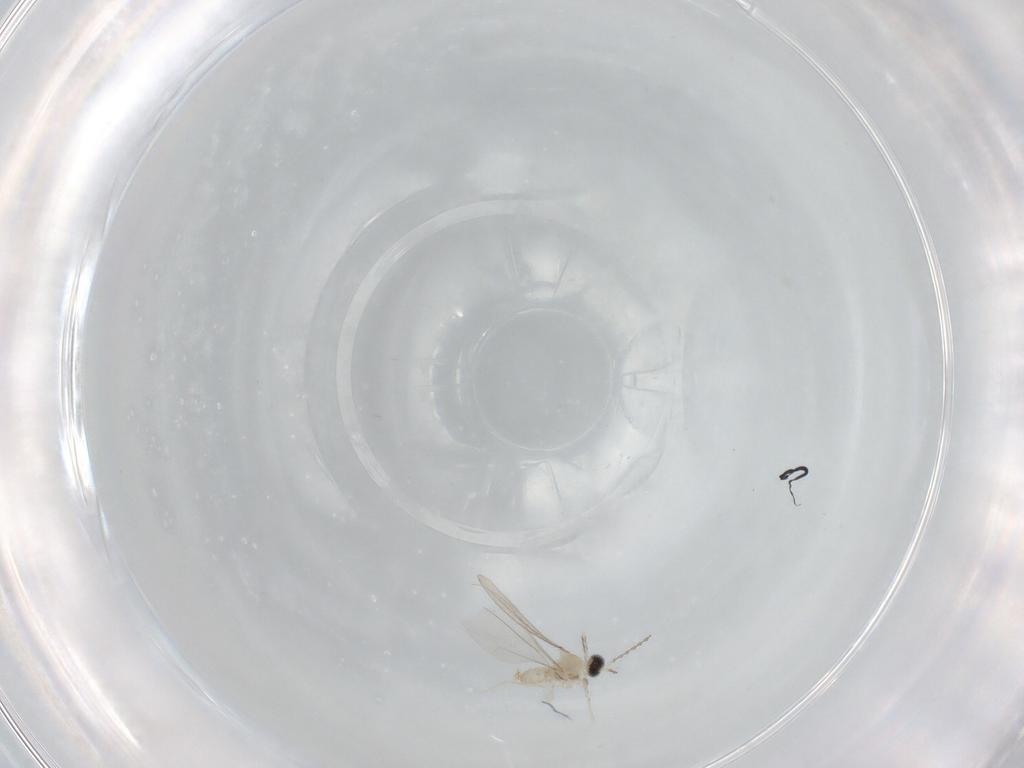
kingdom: Animalia
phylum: Arthropoda
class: Insecta
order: Diptera
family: Cecidomyiidae
